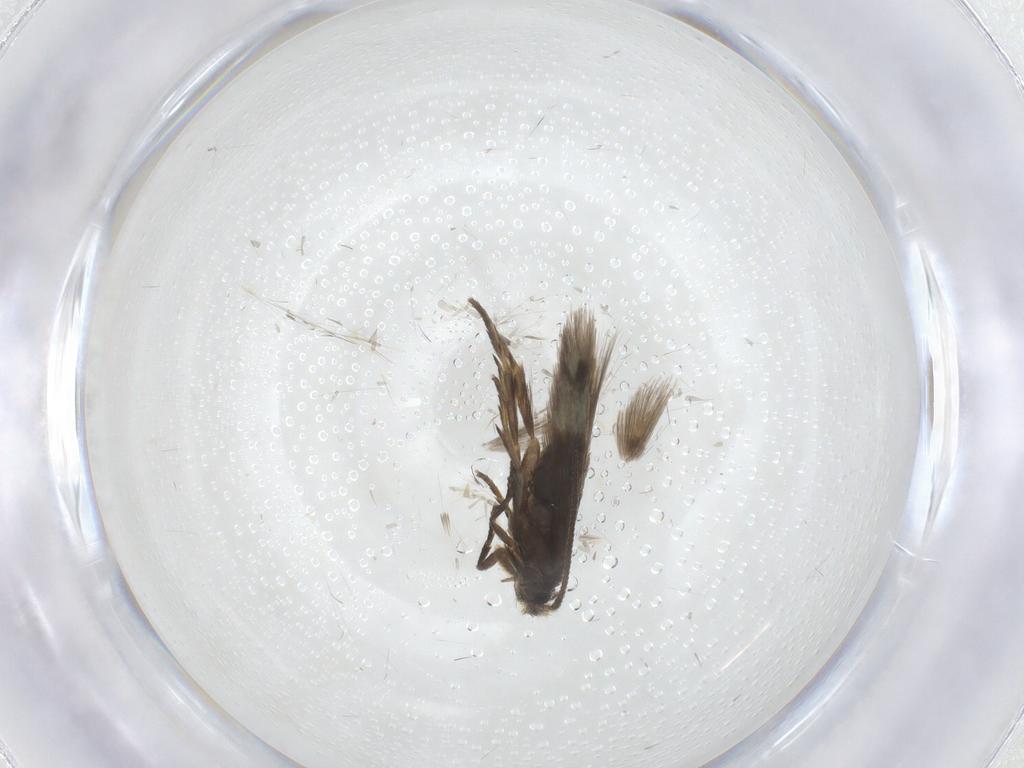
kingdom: Animalia
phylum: Arthropoda
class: Insecta
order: Lepidoptera
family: Nepticulidae
